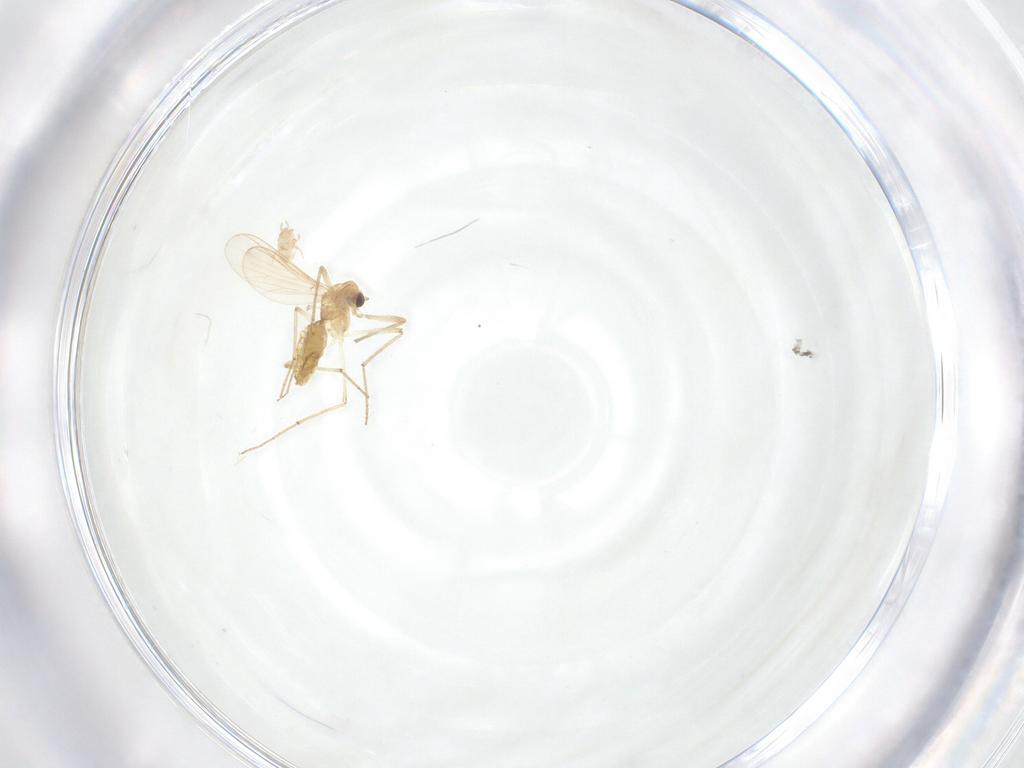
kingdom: Animalia
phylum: Arthropoda
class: Insecta
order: Diptera
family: Chironomidae
